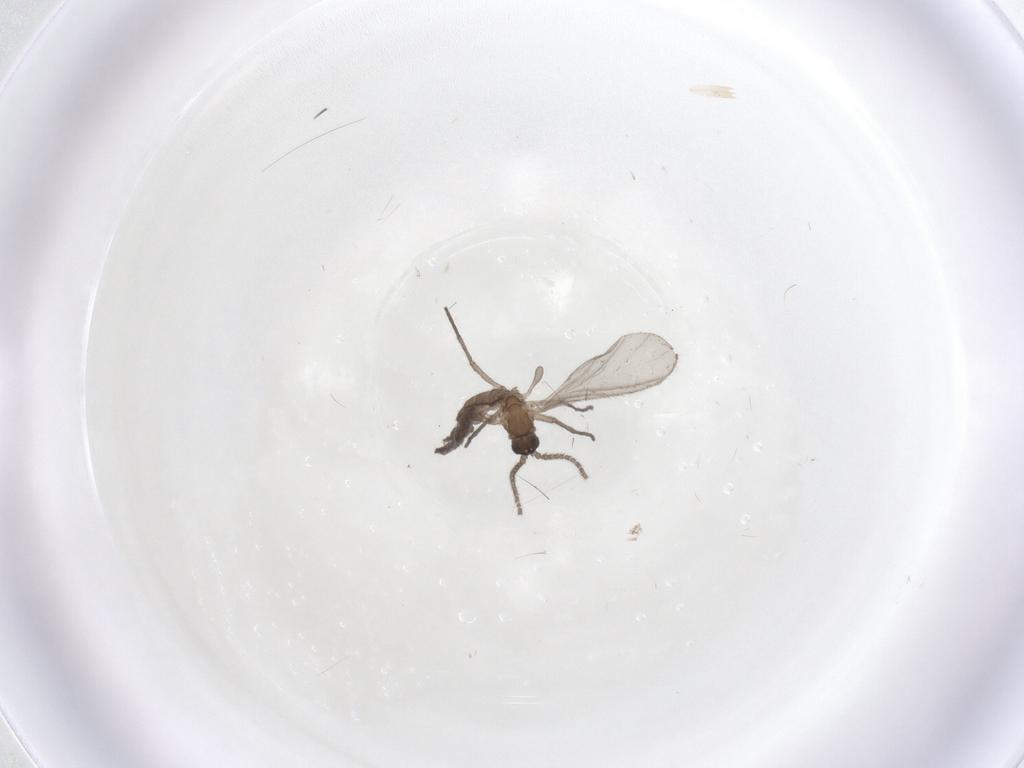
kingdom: Animalia
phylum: Arthropoda
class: Insecta
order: Diptera
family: Sciaridae
